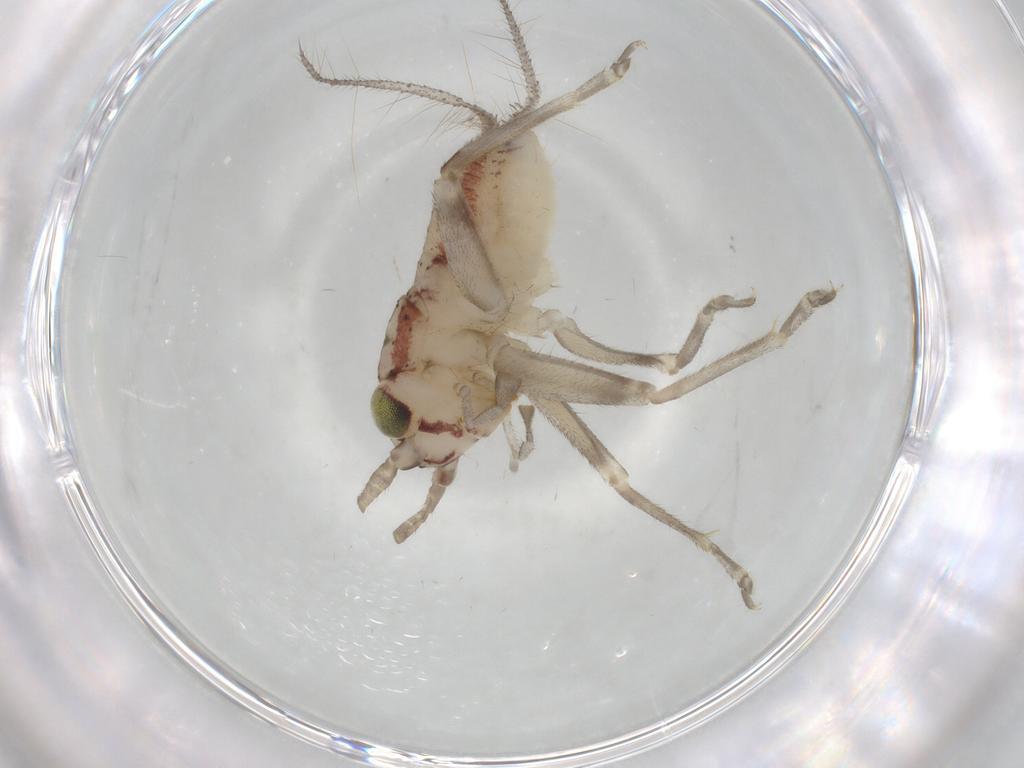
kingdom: Animalia
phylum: Arthropoda
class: Insecta
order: Orthoptera
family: Trigonidiidae
